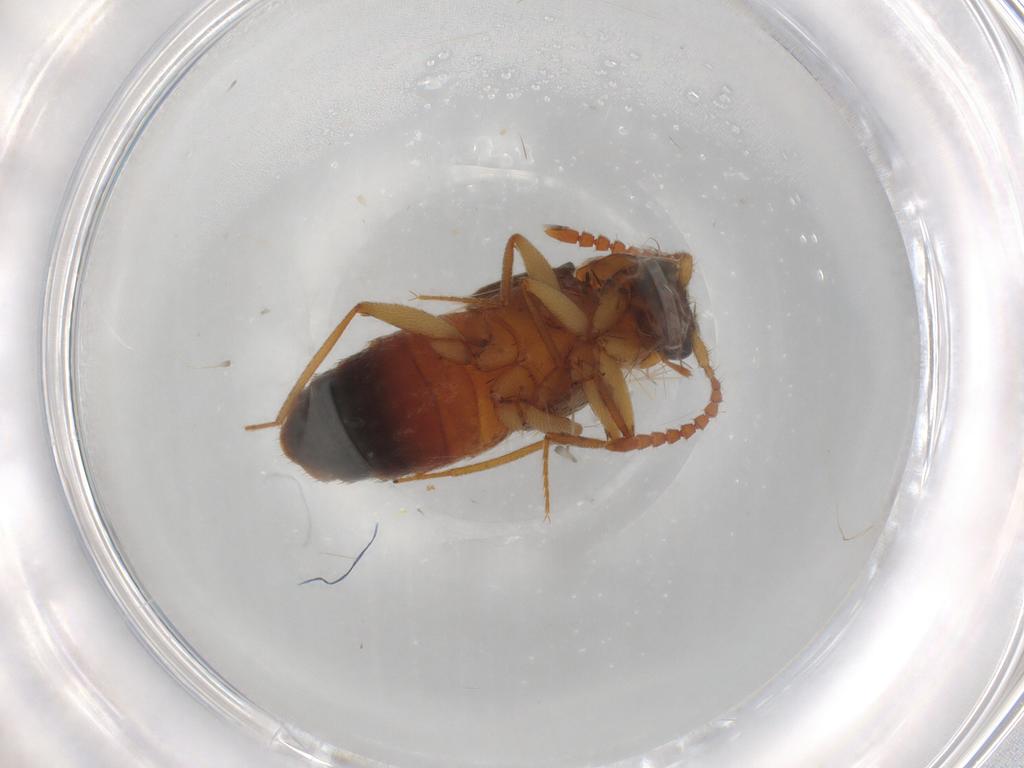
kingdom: Animalia
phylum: Arthropoda
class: Insecta
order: Coleoptera
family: Staphylinidae
